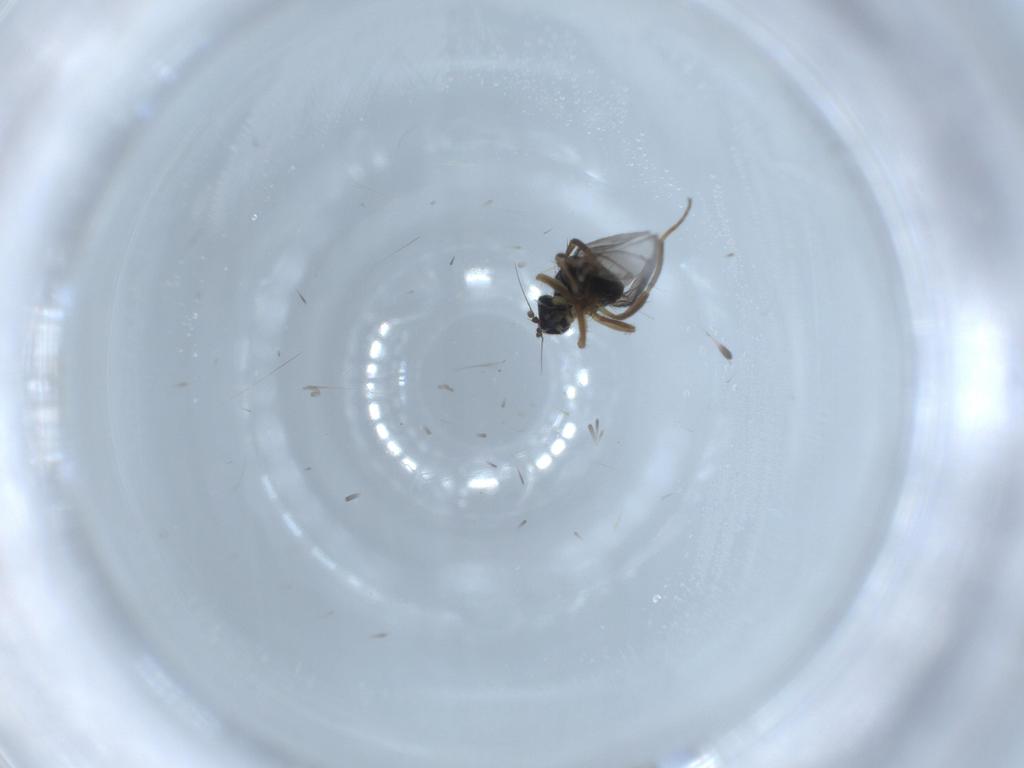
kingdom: Animalia
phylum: Arthropoda
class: Insecta
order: Diptera
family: Hybotidae
